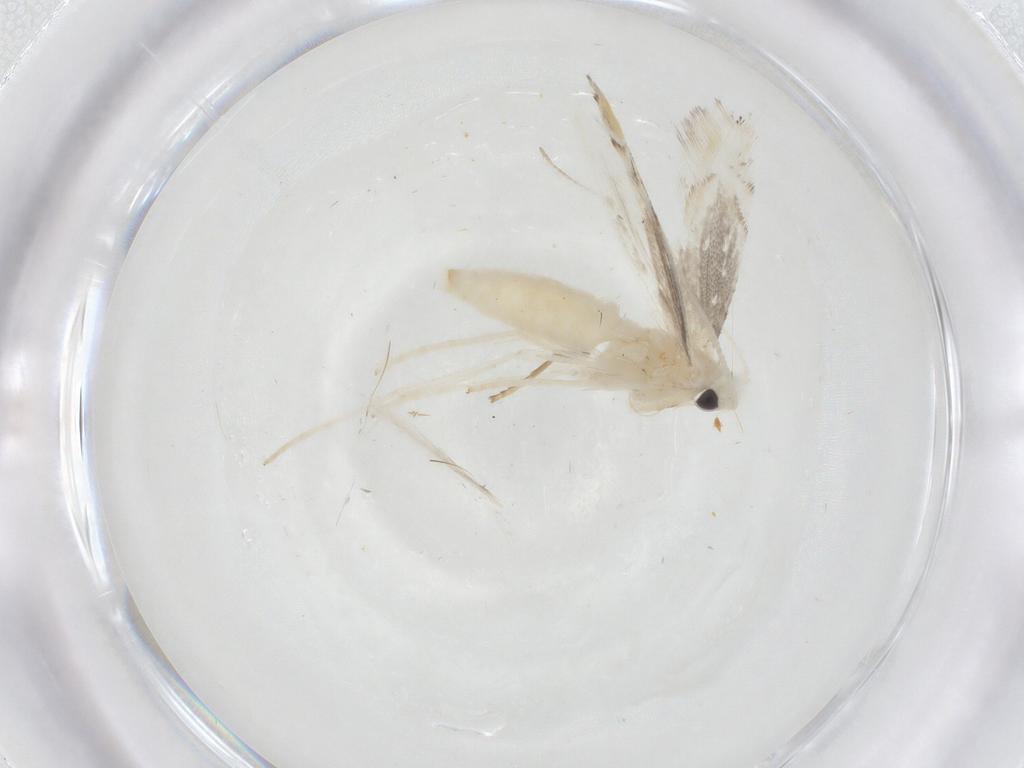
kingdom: Animalia
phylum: Arthropoda
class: Insecta
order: Lepidoptera
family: Gracillariidae
